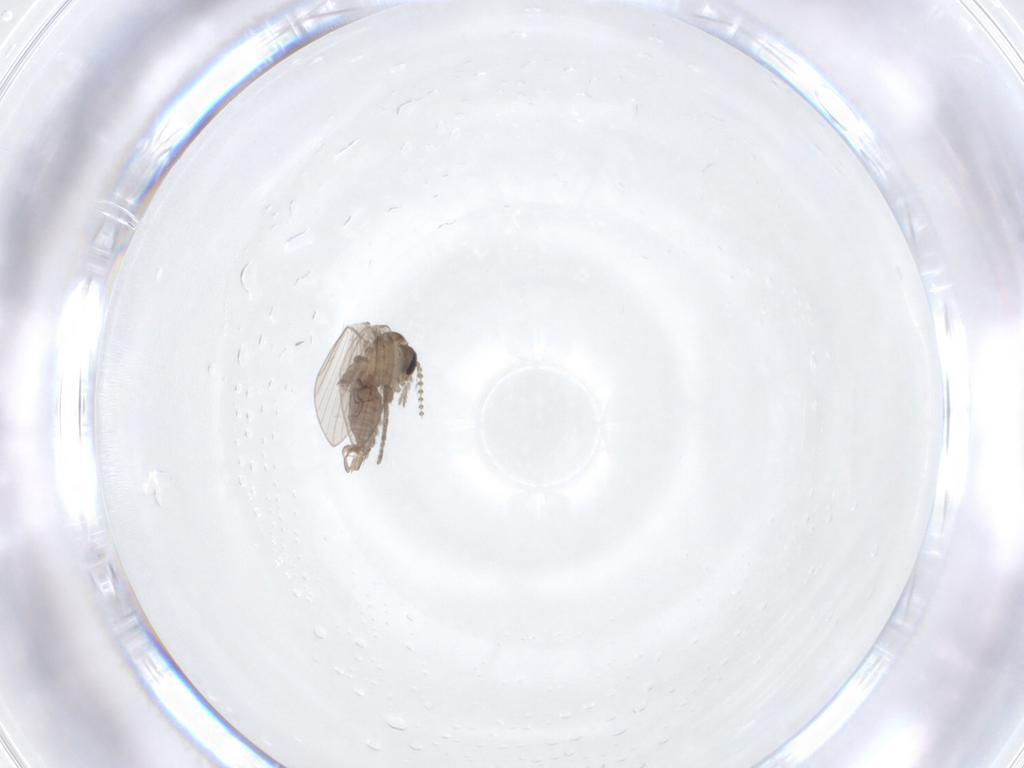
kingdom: Animalia
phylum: Arthropoda
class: Insecta
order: Diptera
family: Psychodidae
